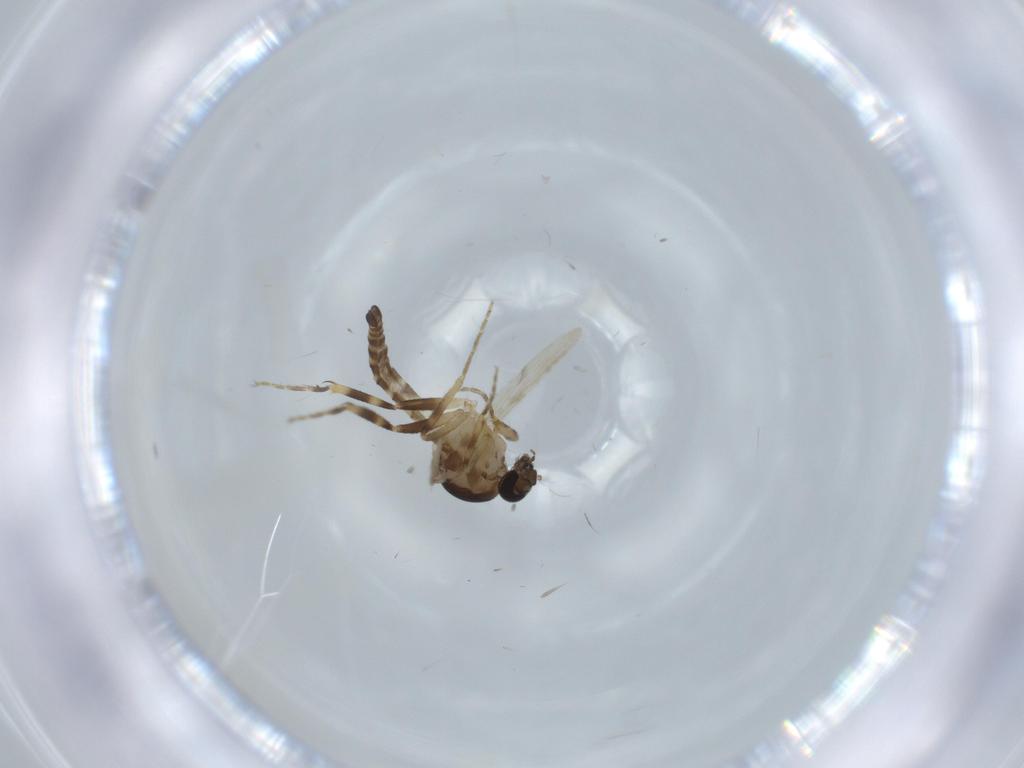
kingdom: Animalia
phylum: Arthropoda
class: Insecta
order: Diptera
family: Ceratopogonidae
